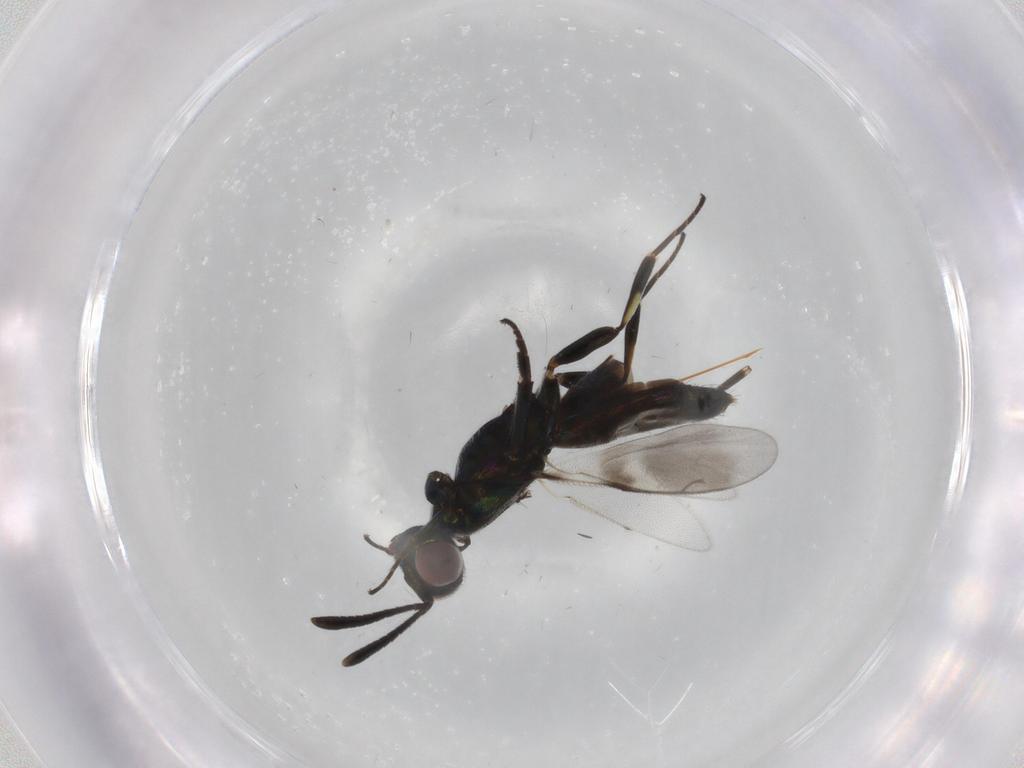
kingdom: Animalia
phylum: Arthropoda
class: Insecta
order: Hymenoptera
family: Eupelmidae
